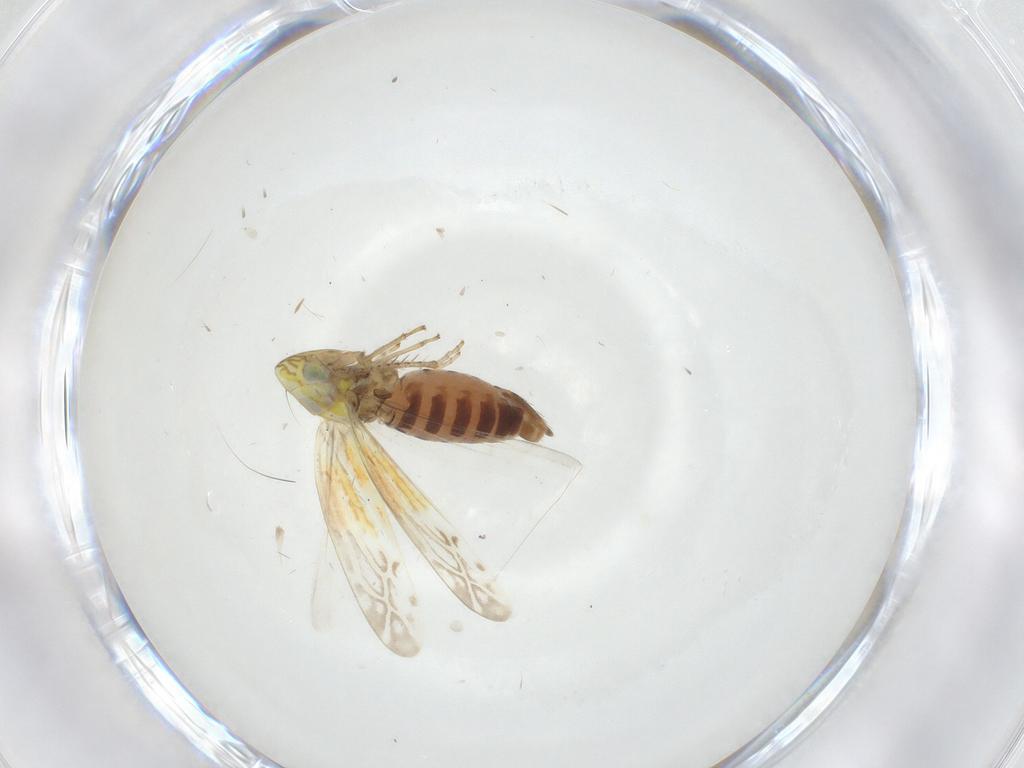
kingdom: Animalia
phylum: Arthropoda
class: Insecta
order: Hemiptera
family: Cicadellidae
